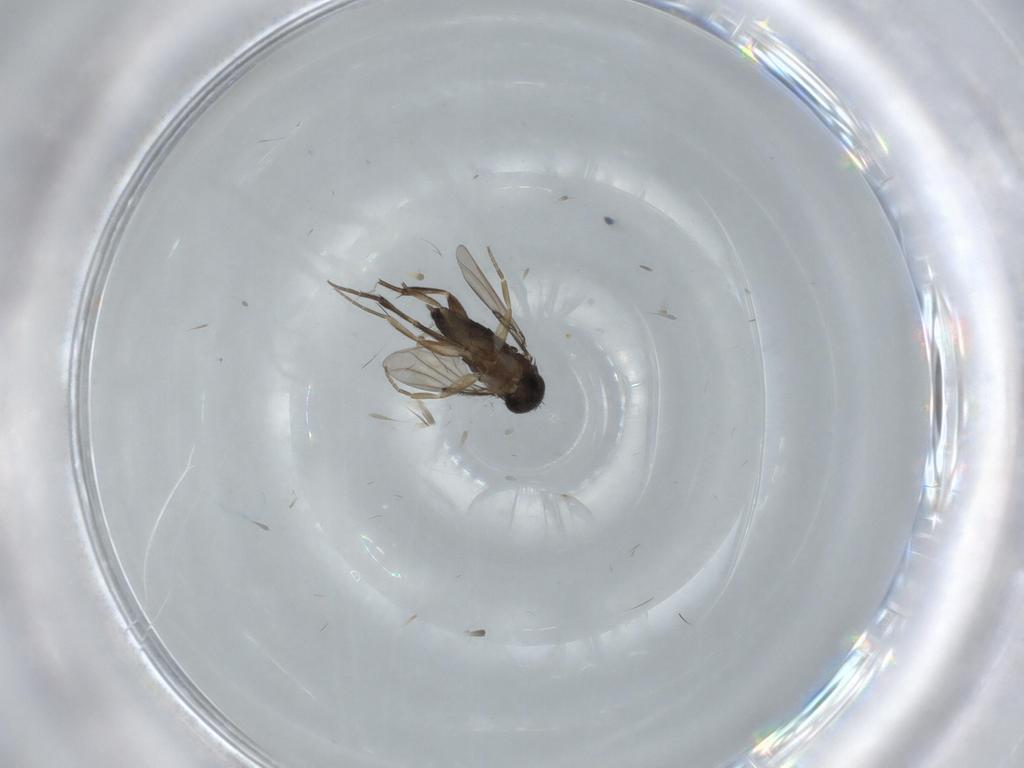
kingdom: Animalia
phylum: Arthropoda
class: Insecta
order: Diptera
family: Phoridae
